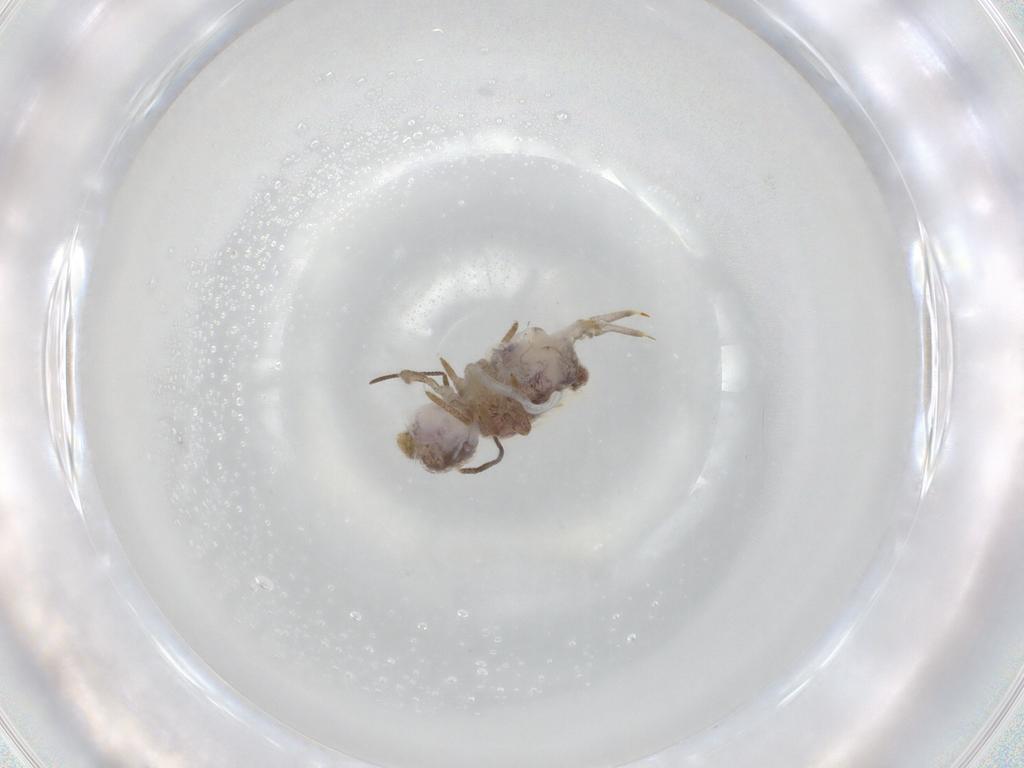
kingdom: Animalia
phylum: Arthropoda
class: Collembola
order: Symphypleona
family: Sminthuridae
